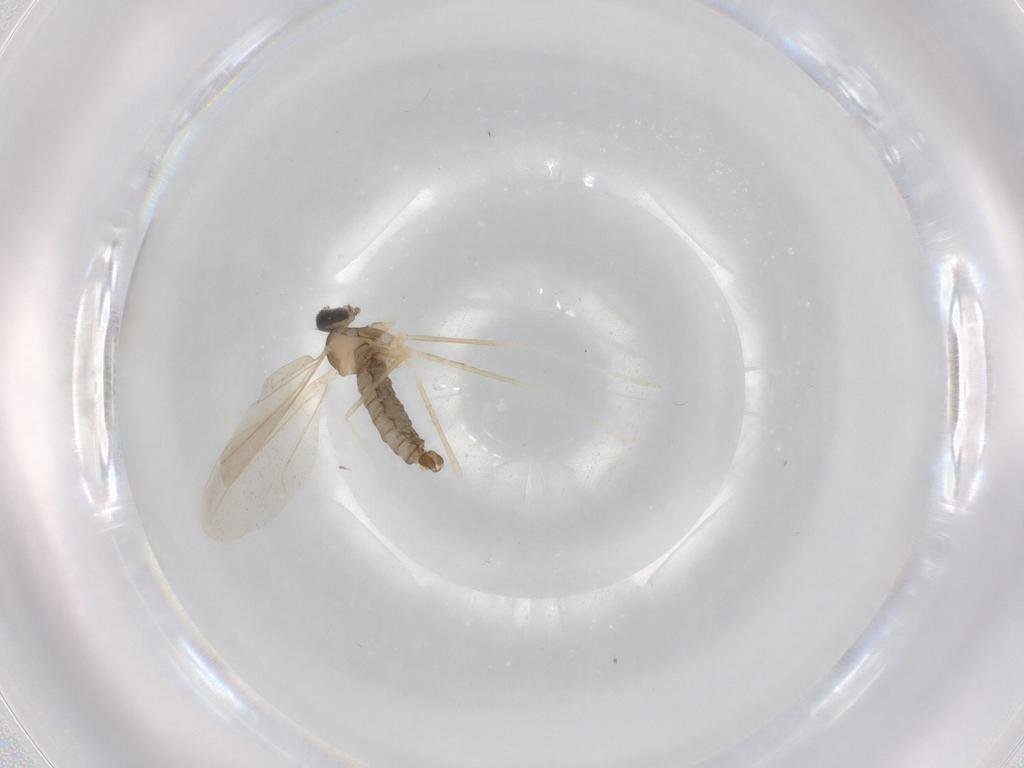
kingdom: Animalia
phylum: Arthropoda
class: Insecta
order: Diptera
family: Cecidomyiidae
